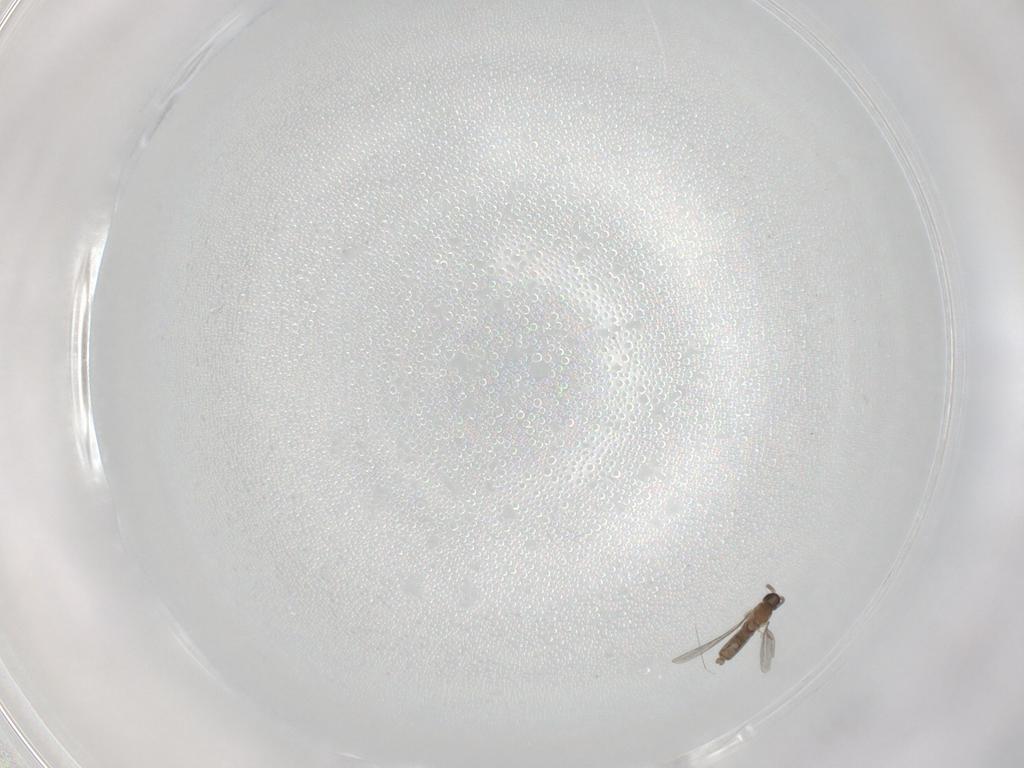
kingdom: Animalia
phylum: Arthropoda
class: Insecta
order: Diptera
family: Cecidomyiidae
